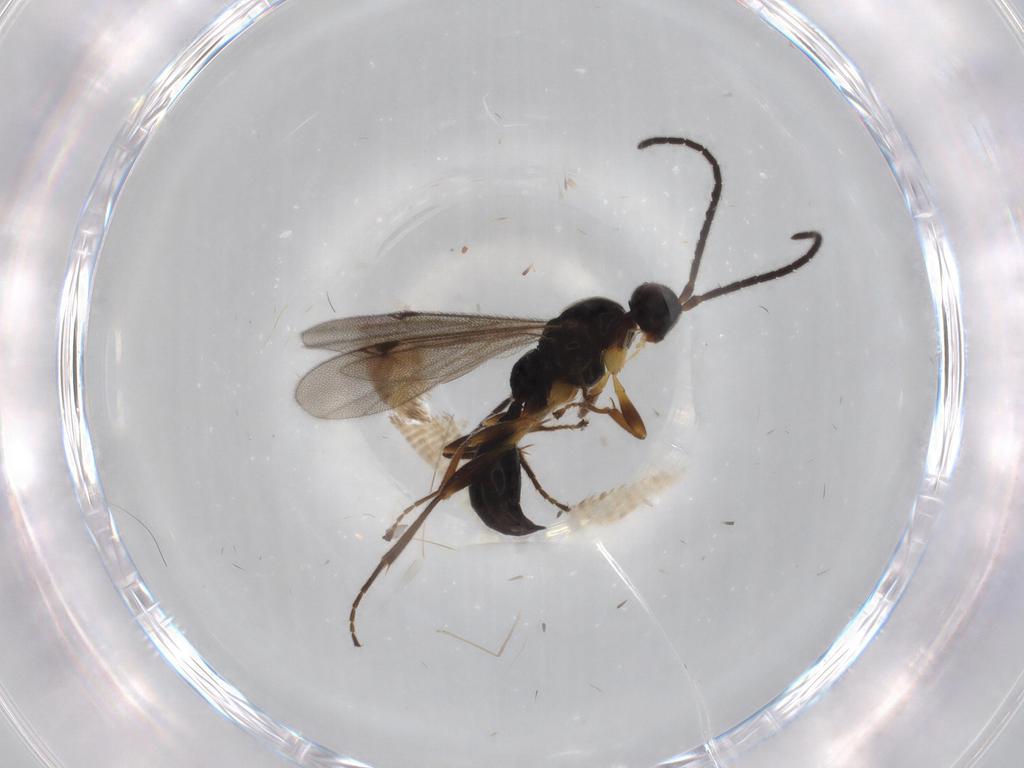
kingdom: Animalia
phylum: Arthropoda
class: Insecta
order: Hymenoptera
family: Proctotrupidae
